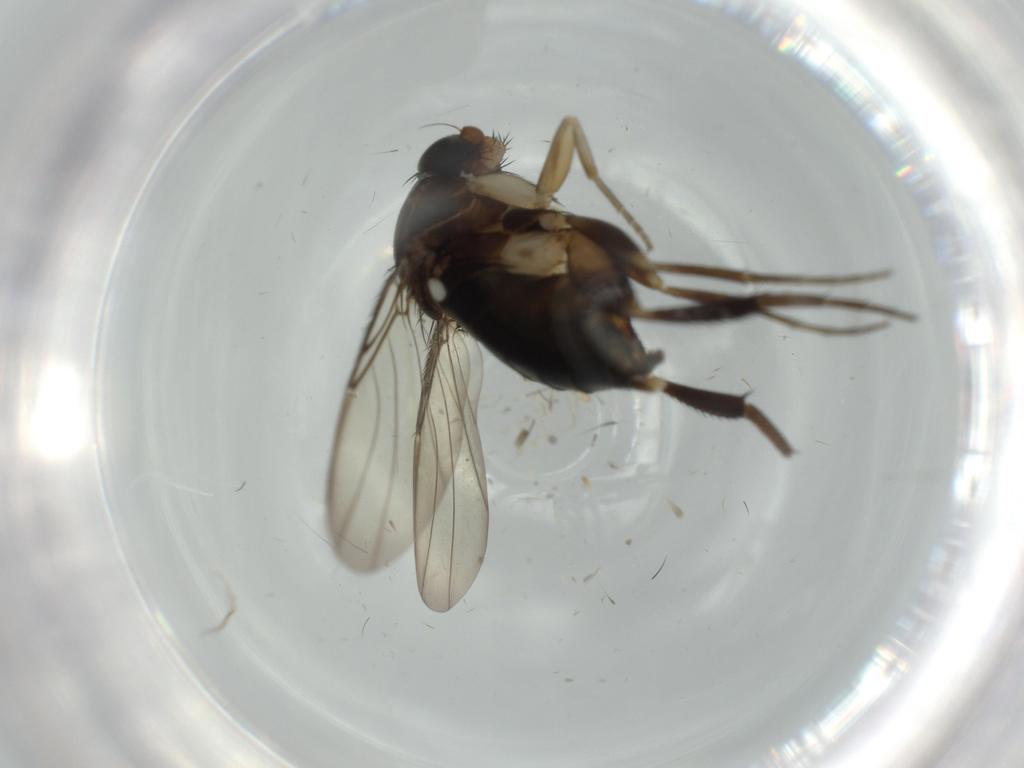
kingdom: Animalia
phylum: Arthropoda
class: Insecta
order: Diptera
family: Phoridae
